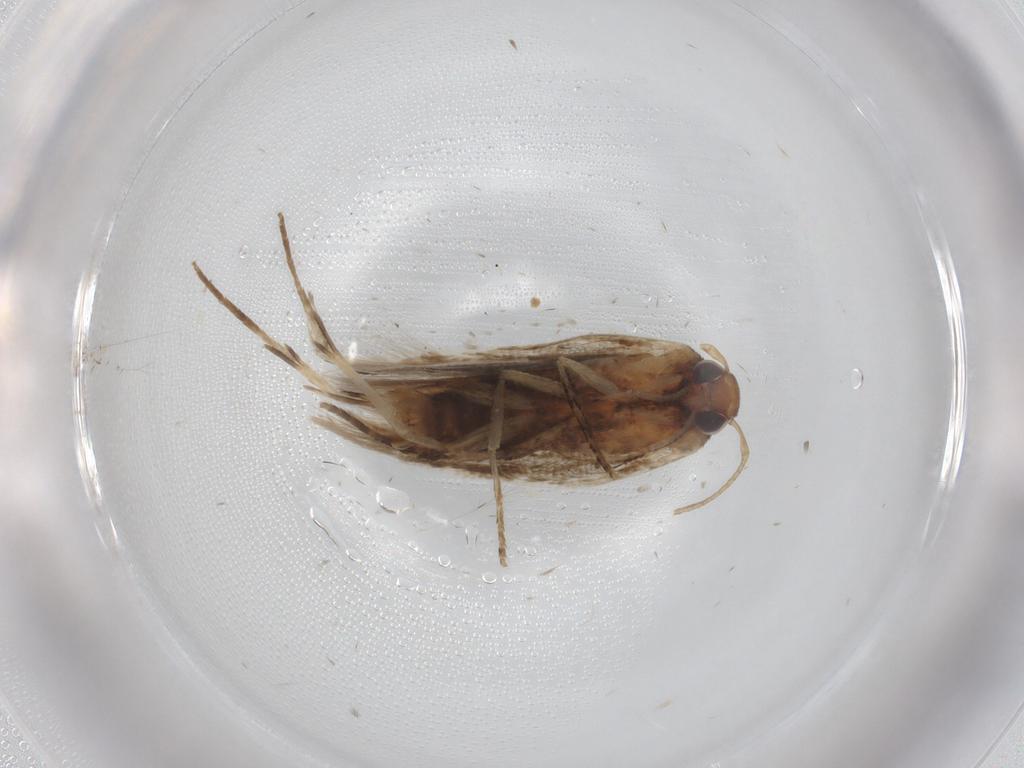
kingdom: Animalia
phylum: Arthropoda
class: Insecta
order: Lepidoptera
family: Cosmopterigidae
